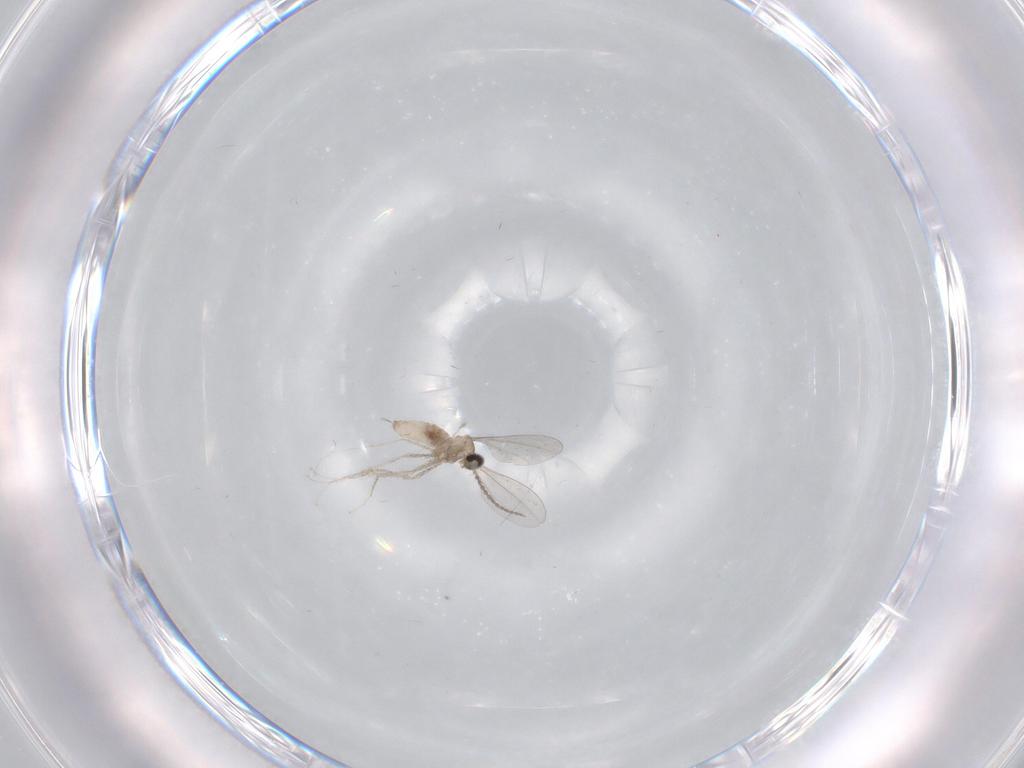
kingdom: Animalia
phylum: Arthropoda
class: Insecta
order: Diptera
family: Cecidomyiidae
